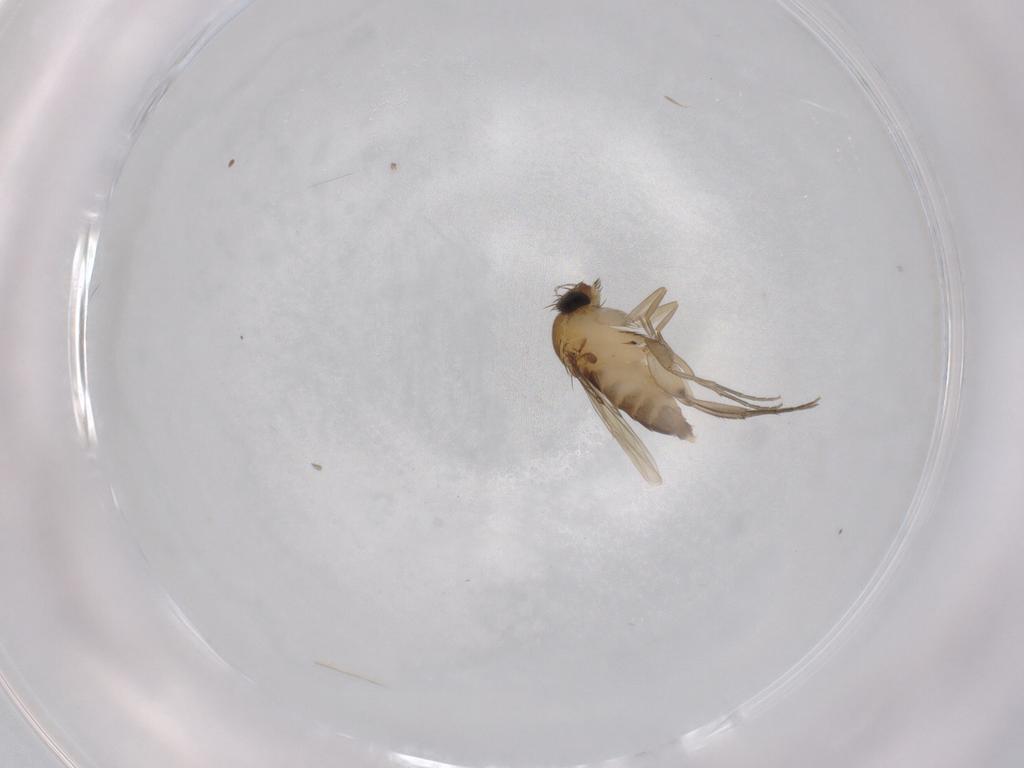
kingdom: Animalia
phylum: Arthropoda
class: Insecta
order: Diptera
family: Phoridae
